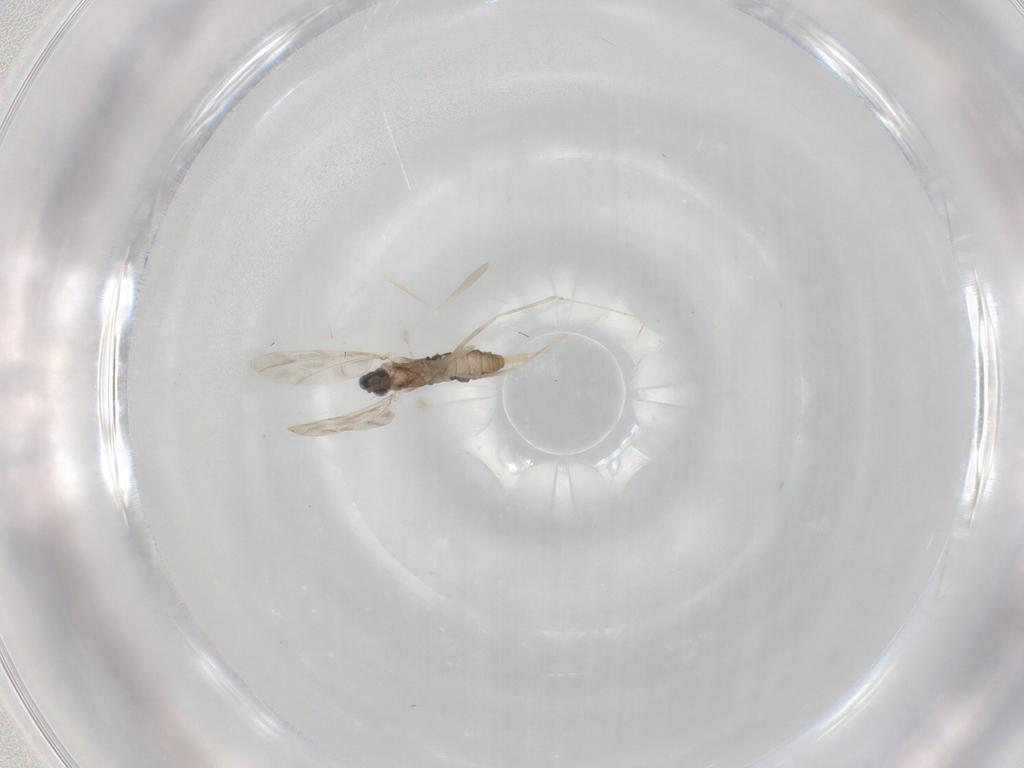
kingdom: Animalia
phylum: Arthropoda
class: Insecta
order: Diptera
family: Cecidomyiidae
